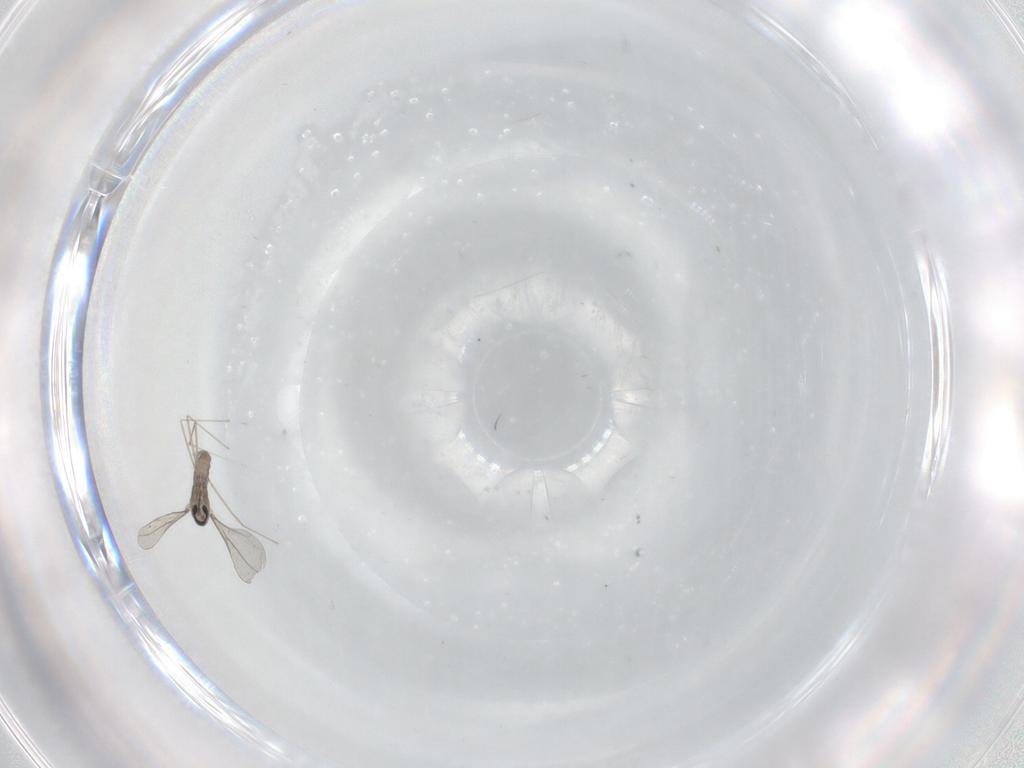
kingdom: Animalia
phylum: Arthropoda
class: Insecta
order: Diptera
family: Cecidomyiidae
